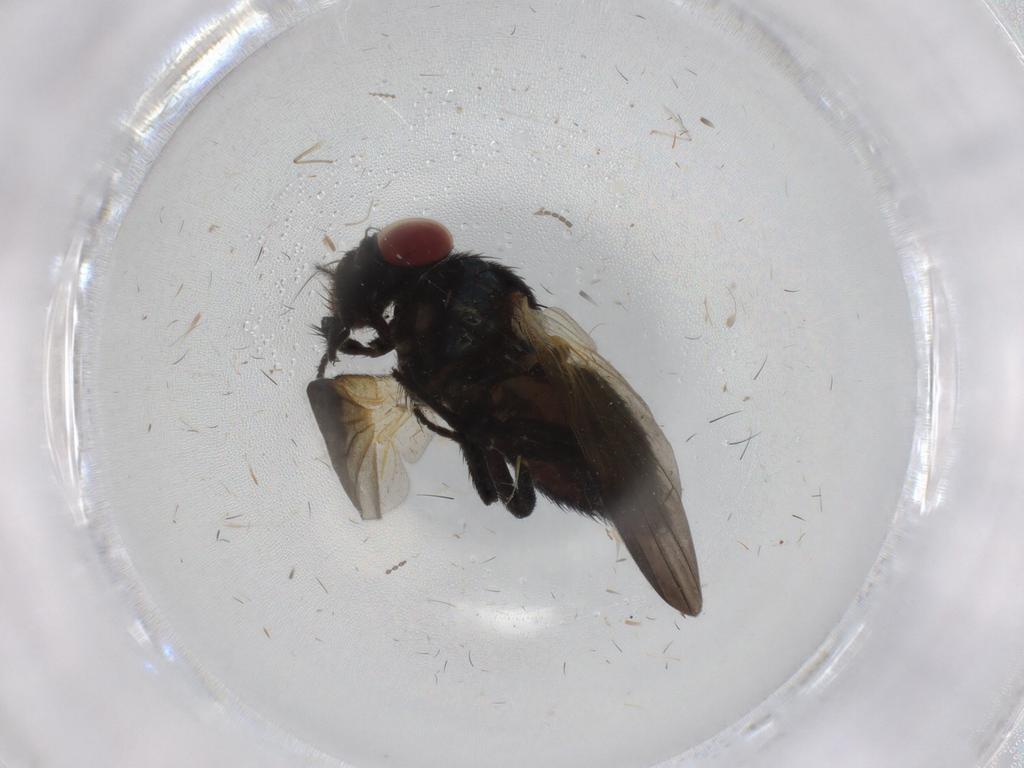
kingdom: Animalia
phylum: Arthropoda
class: Insecta
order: Diptera
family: Lonchaeidae
